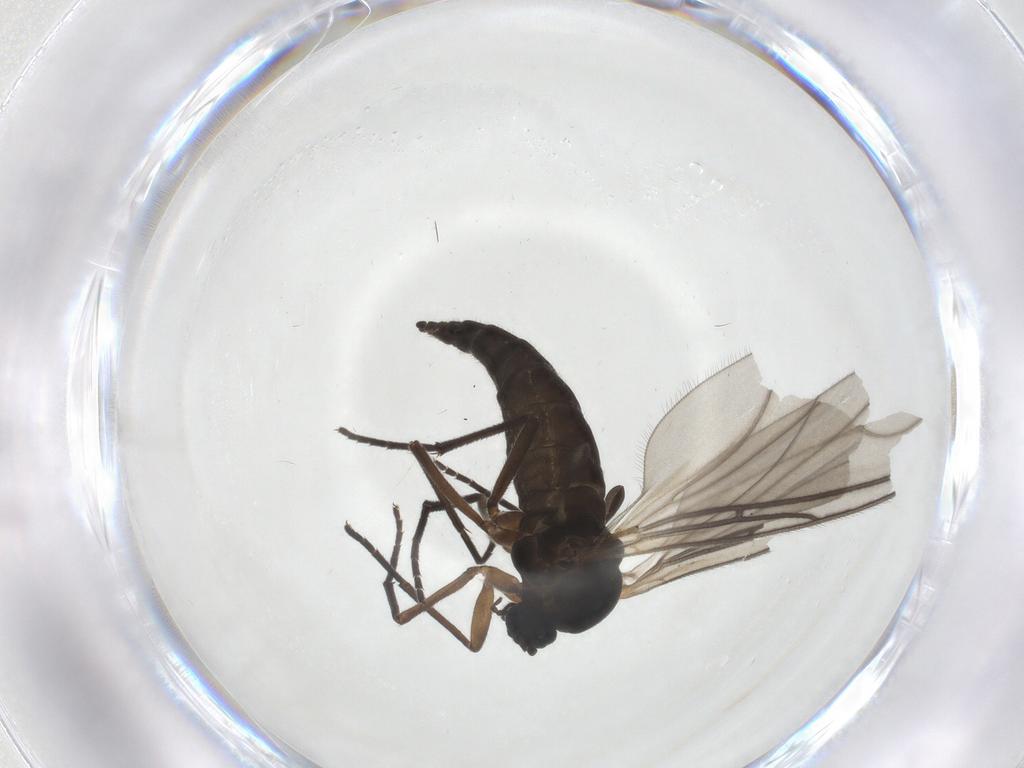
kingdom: Animalia
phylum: Arthropoda
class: Insecta
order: Diptera
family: Sciaridae
